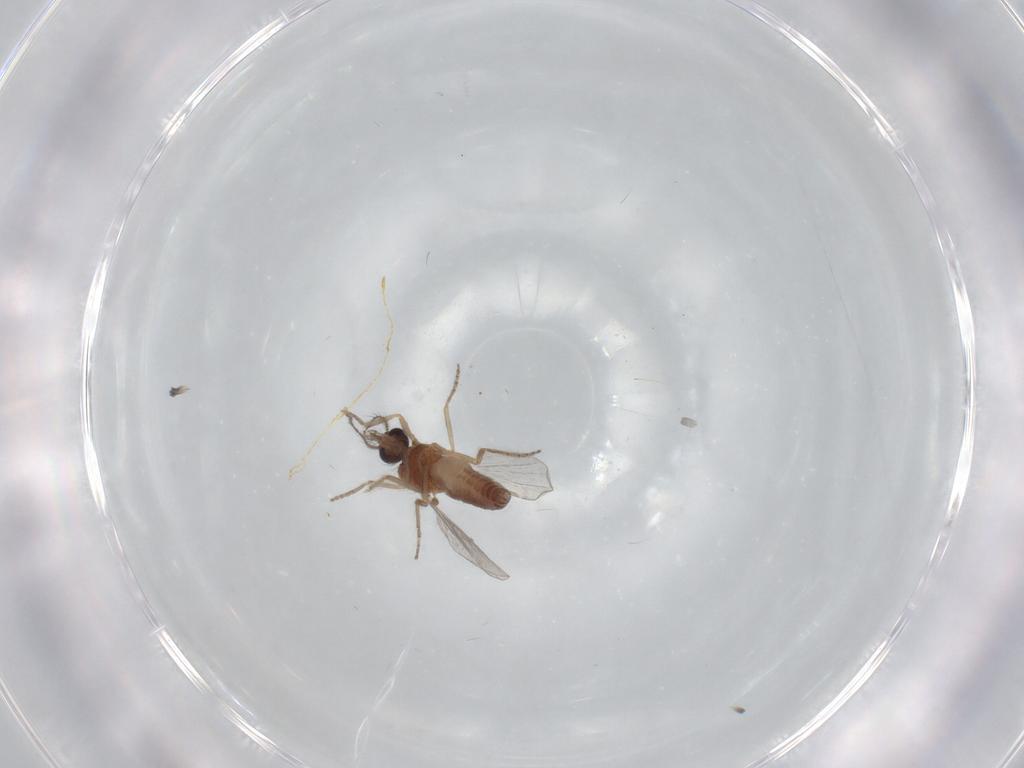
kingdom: Animalia
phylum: Arthropoda
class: Insecta
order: Diptera
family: Ceratopogonidae
